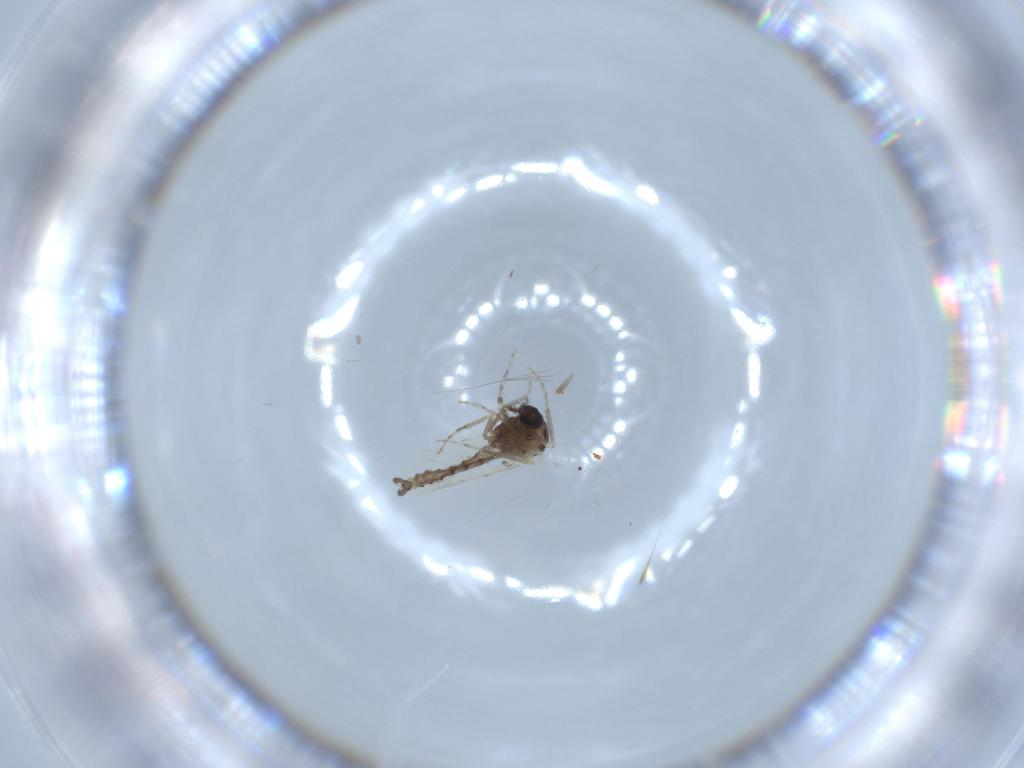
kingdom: Animalia
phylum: Arthropoda
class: Insecta
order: Diptera
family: Ceratopogonidae
